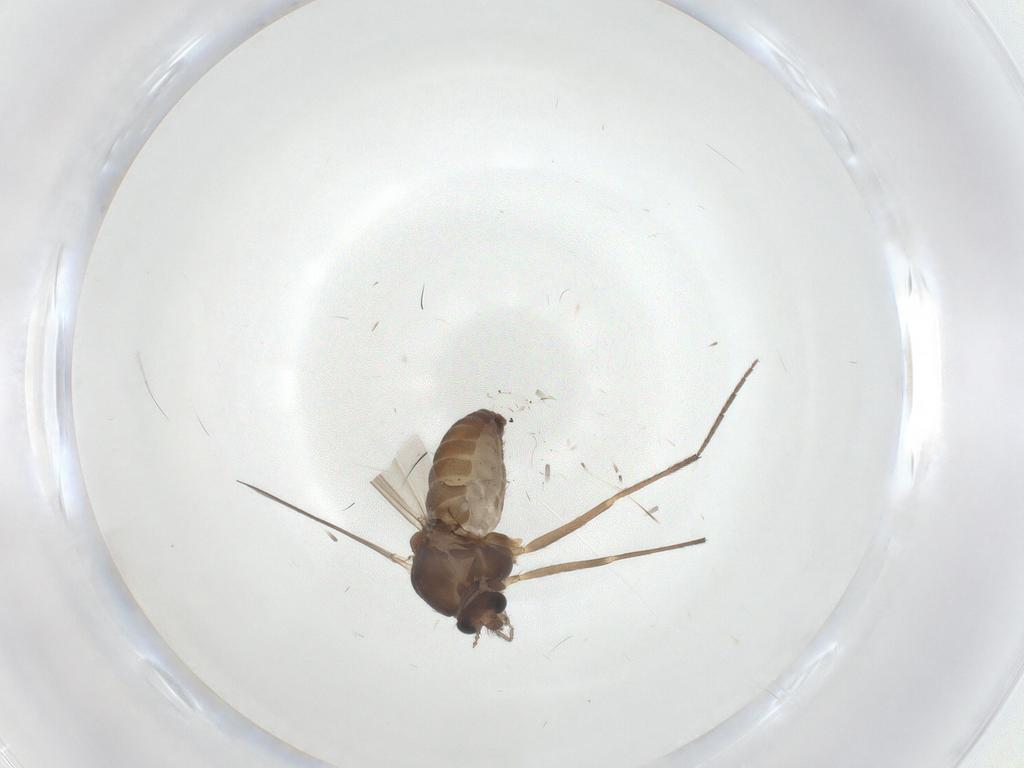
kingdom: Animalia
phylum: Arthropoda
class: Insecta
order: Diptera
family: Chironomidae
